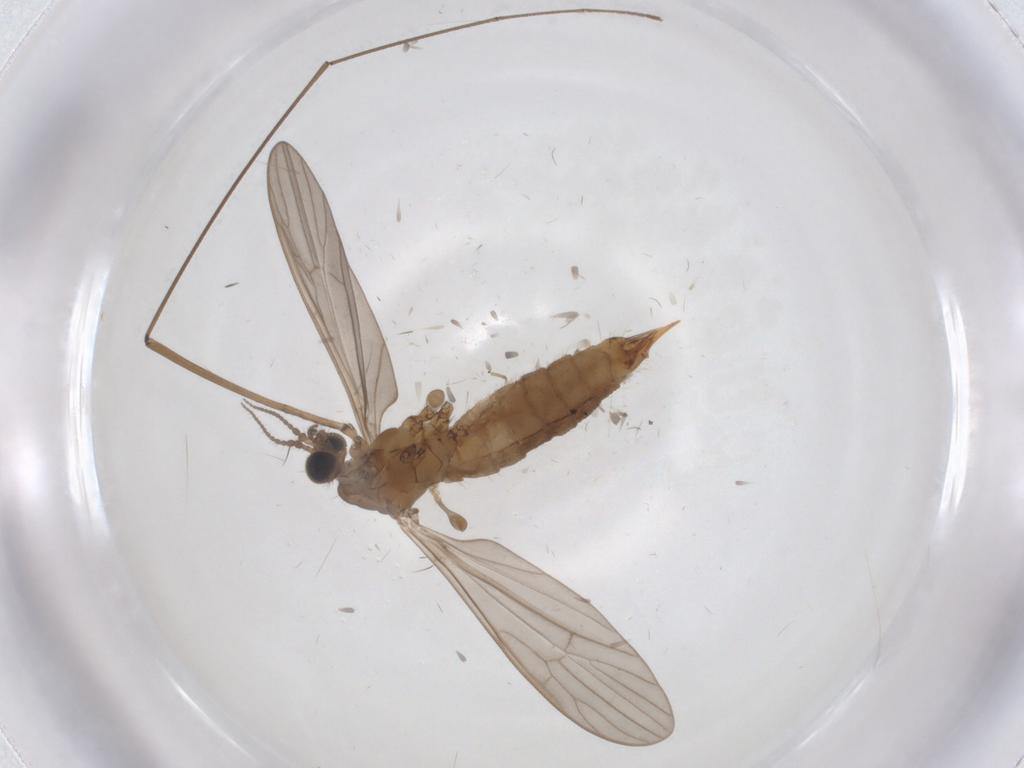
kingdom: Animalia
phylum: Arthropoda
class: Insecta
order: Diptera
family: Limoniidae
